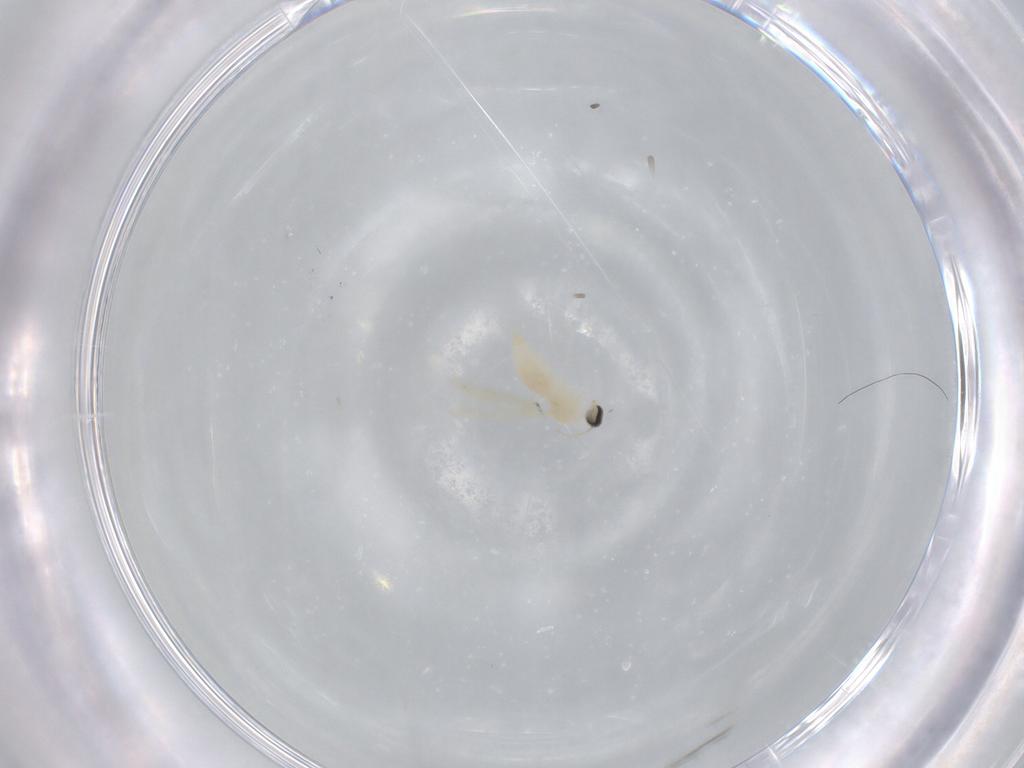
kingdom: Animalia
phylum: Arthropoda
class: Insecta
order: Diptera
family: Cecidomyiidae
